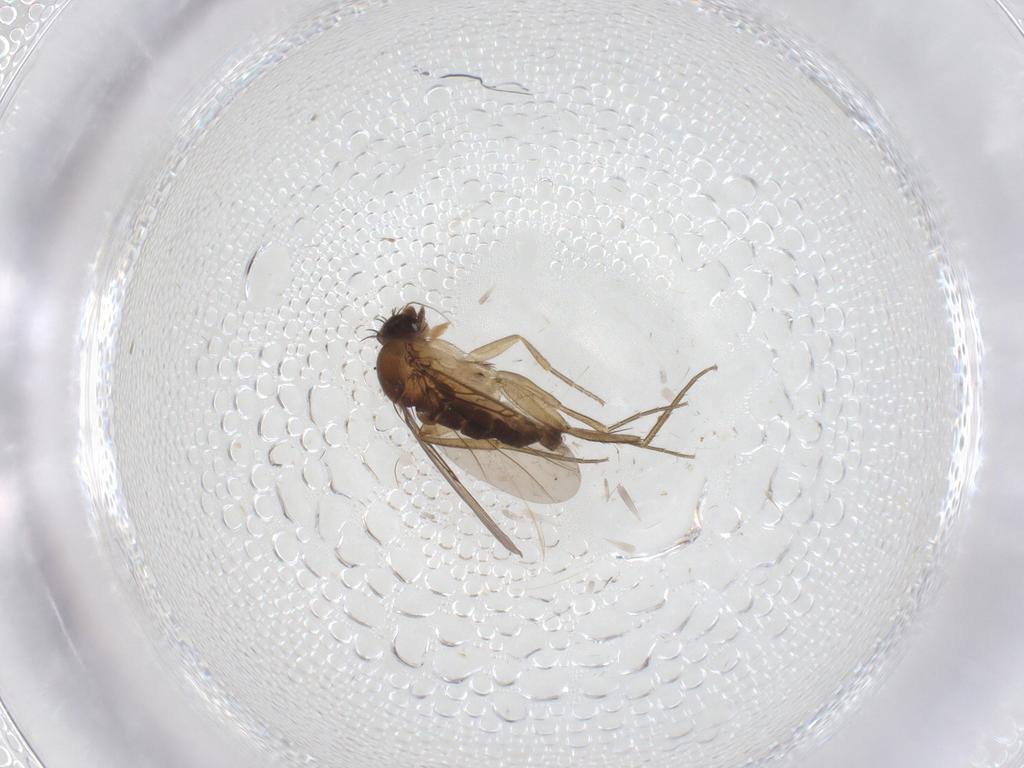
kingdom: Animalia
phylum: Arthropoda
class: Insecta
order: Diptera
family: Phoridae
